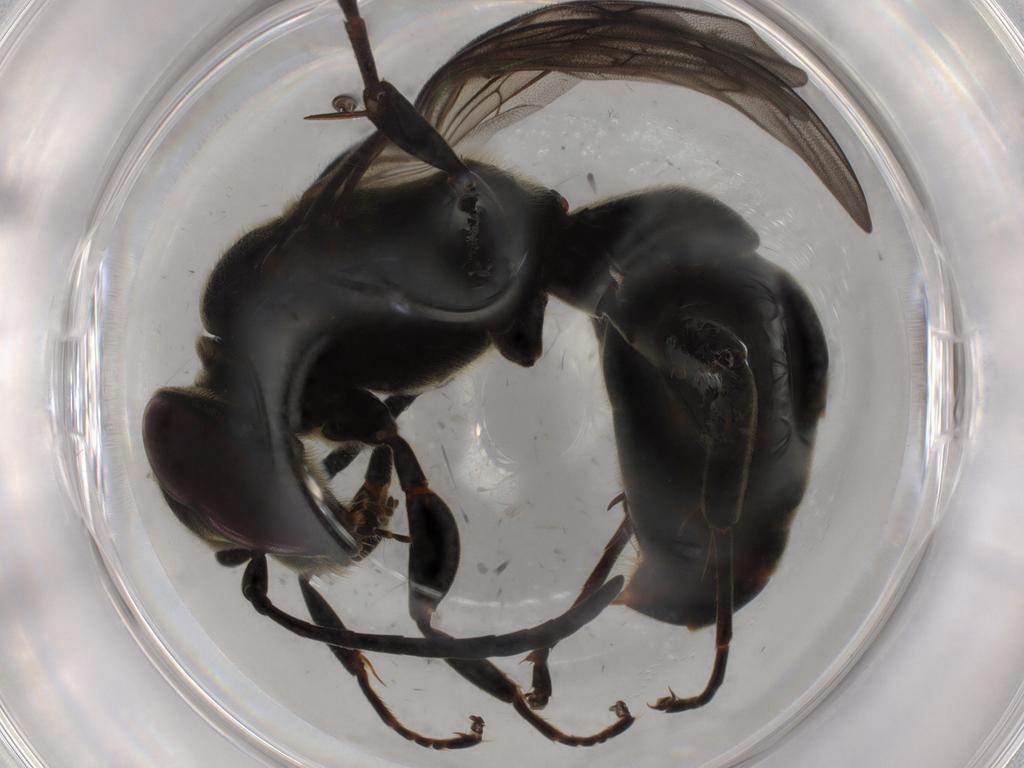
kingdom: Animalia
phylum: Arthropoda
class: Insecta
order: Hymenoptera
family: Crabronidae
